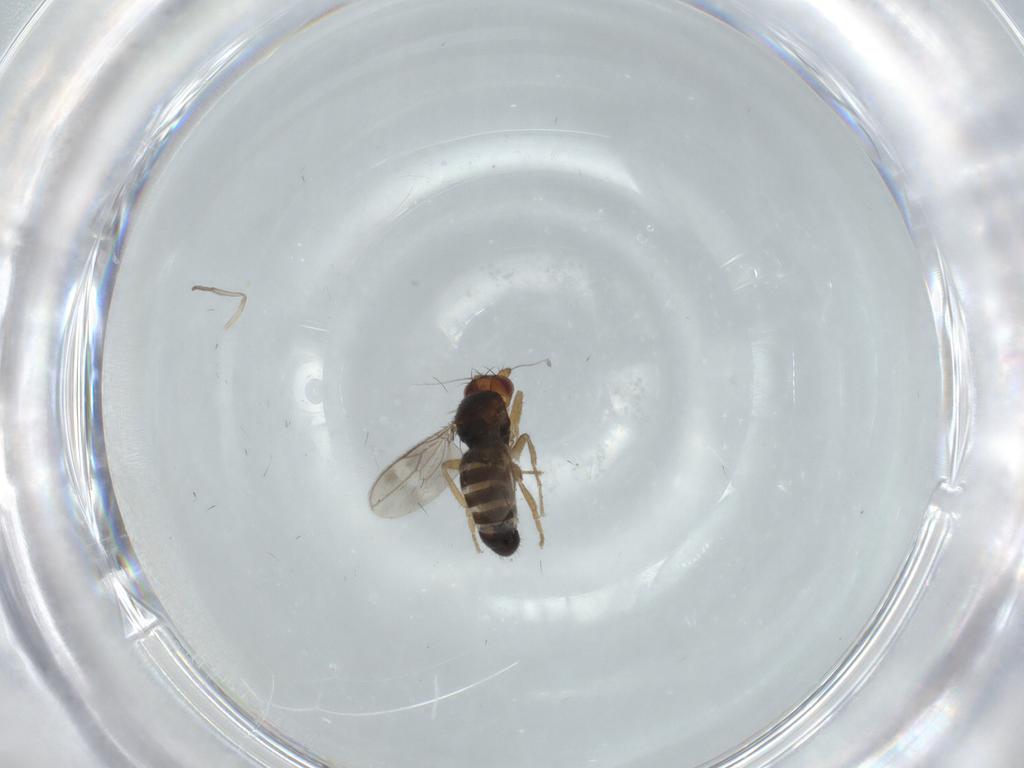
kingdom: Animalia
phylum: Arthropoda
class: Insecta
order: Diptera
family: Sphaeroceridae
